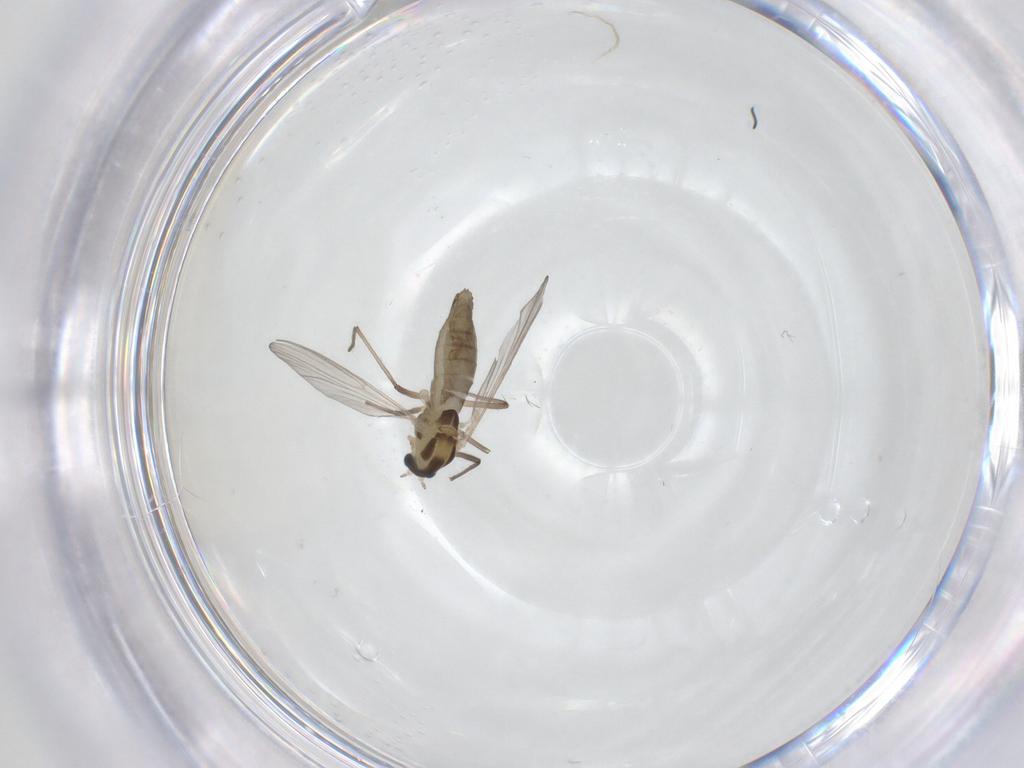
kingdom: Animalia
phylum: Arthropoda
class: Insecta
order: Diptera
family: Chironomidae
